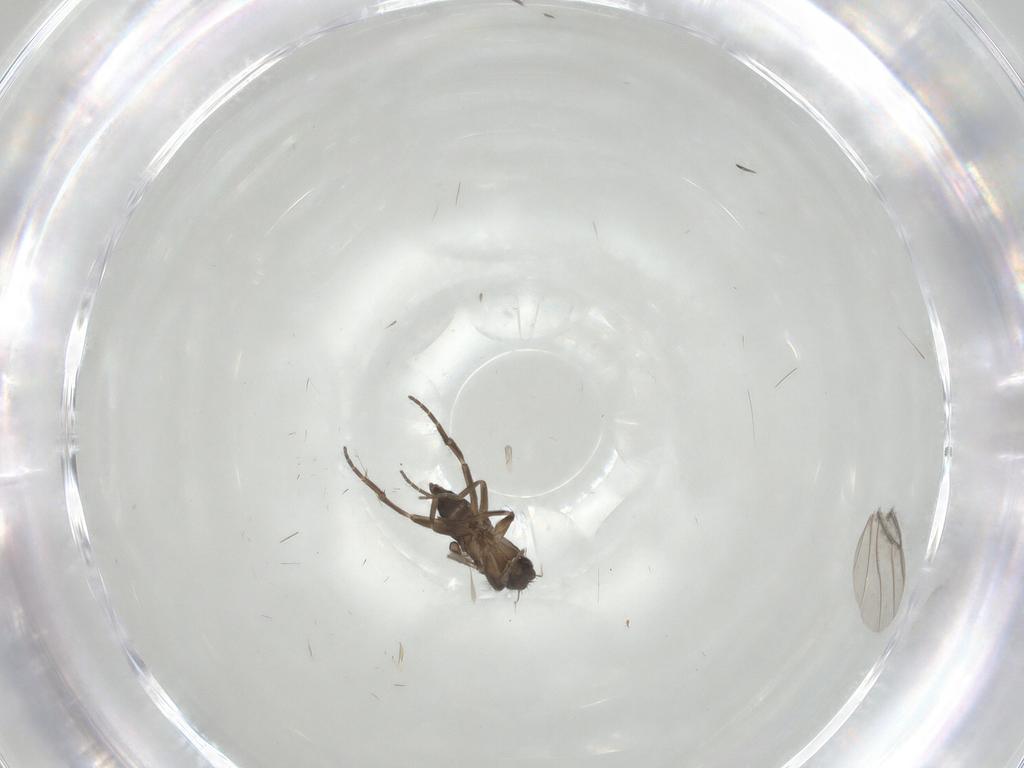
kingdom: Animalia
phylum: Arthropoda
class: Insecta
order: Diptera
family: Phoridae
